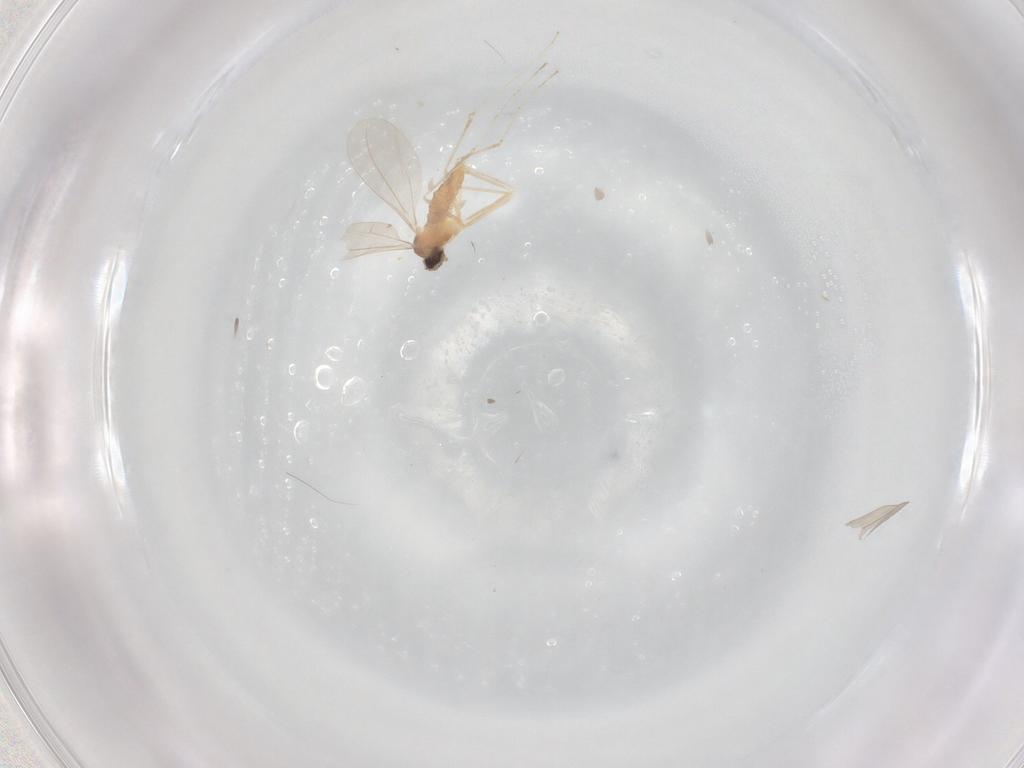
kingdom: Animalia
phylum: Arthropoda
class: Insecta
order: Diptera
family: Cecidomyiidae
